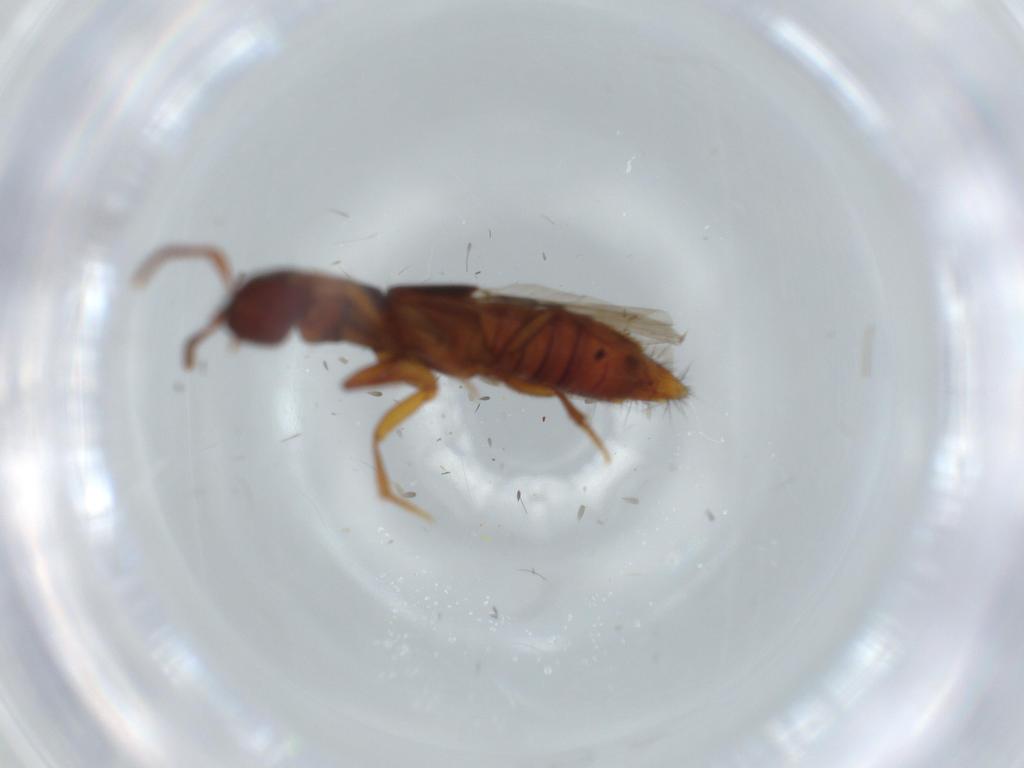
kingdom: Animalia
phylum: Arthropoda
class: Insecta
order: Coleoptera
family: Staphylinidae
